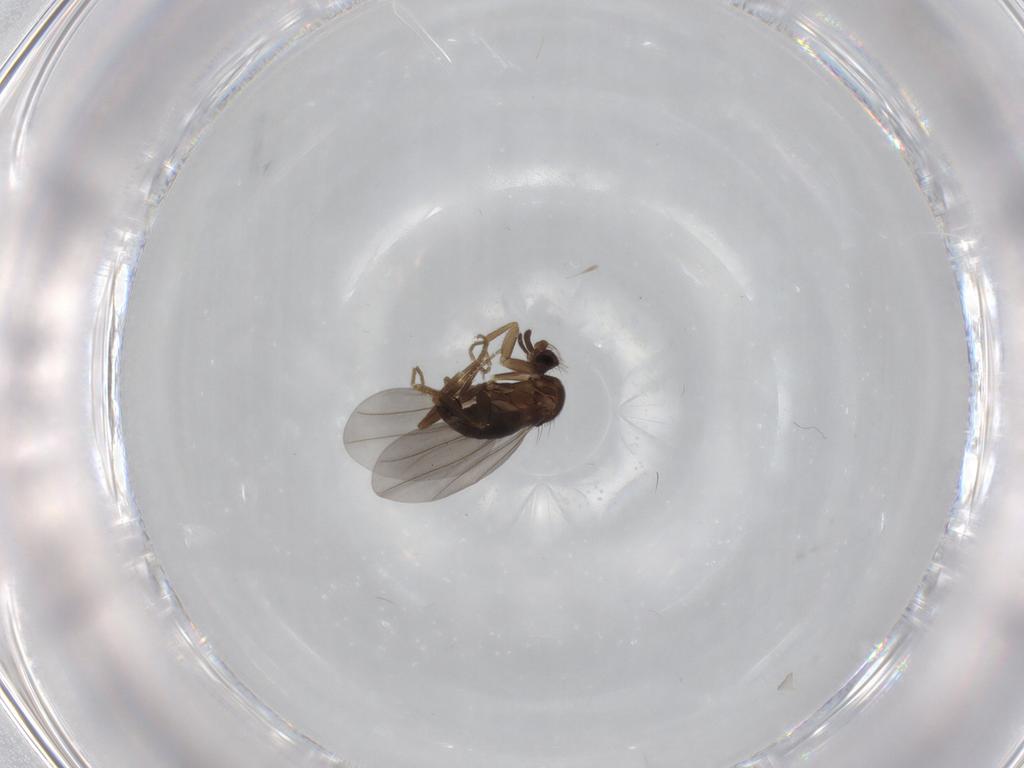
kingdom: Animalia
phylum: Arthropoda
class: Insecta
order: Diptera
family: Phoridae
